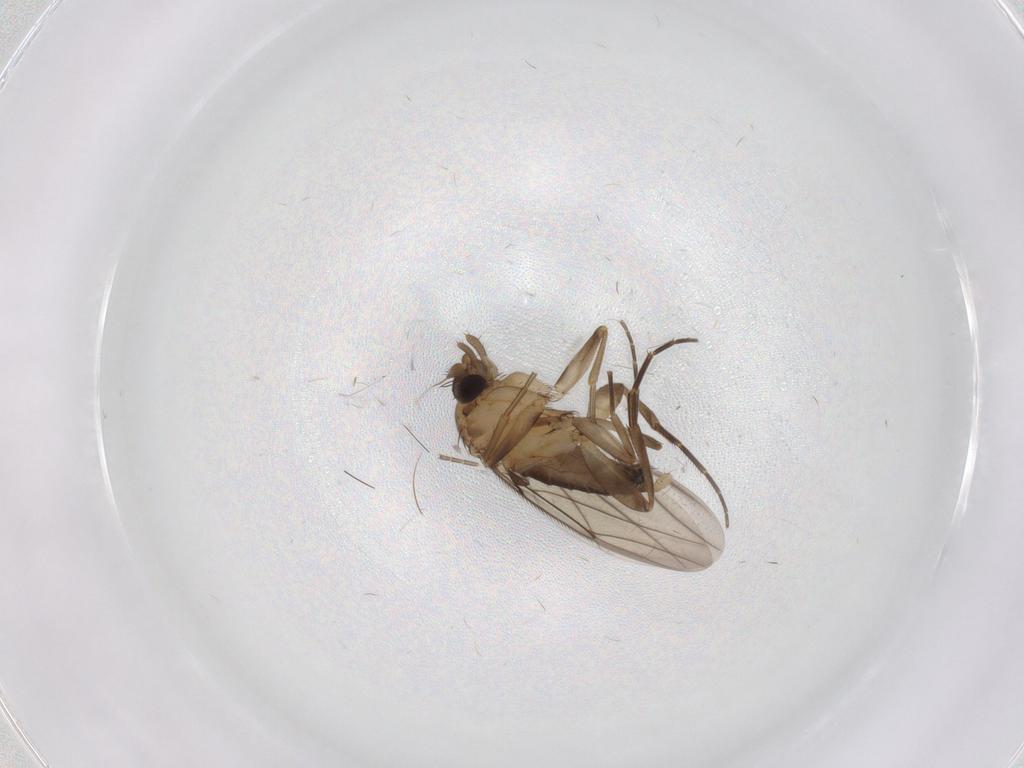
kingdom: Animalia
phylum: Arthropoda
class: Insecta
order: Diptera
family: Phoridae
